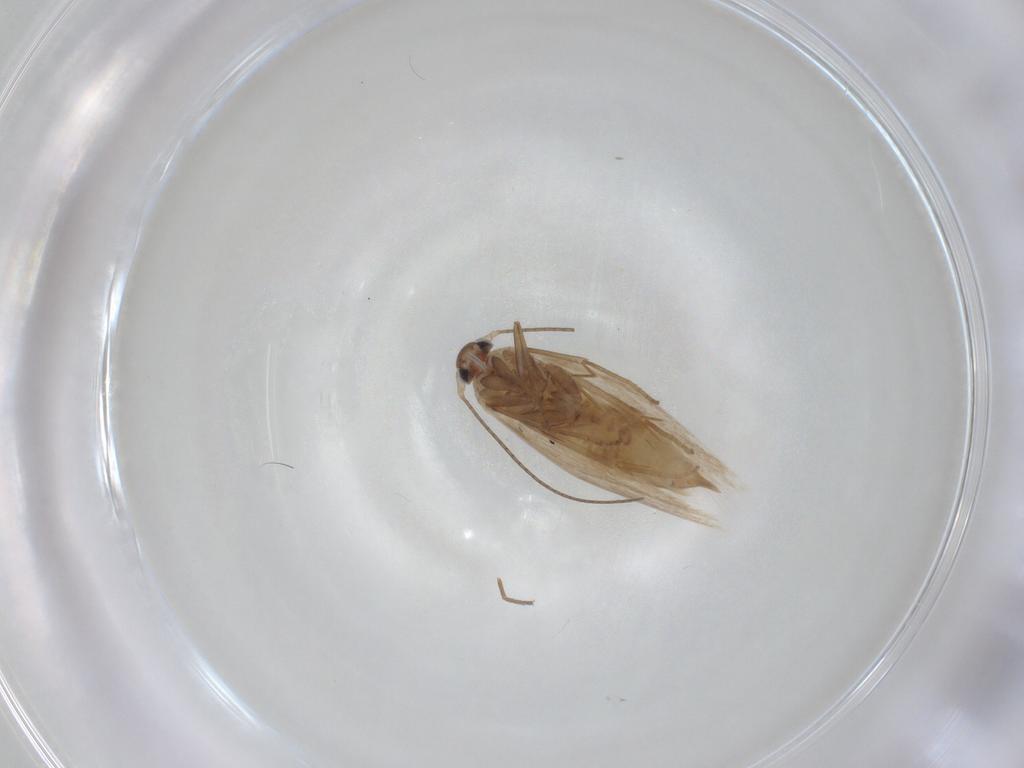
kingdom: Animalia
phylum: Arthropoda
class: Insecta
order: Lepidoptera
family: Bucculatricidae
